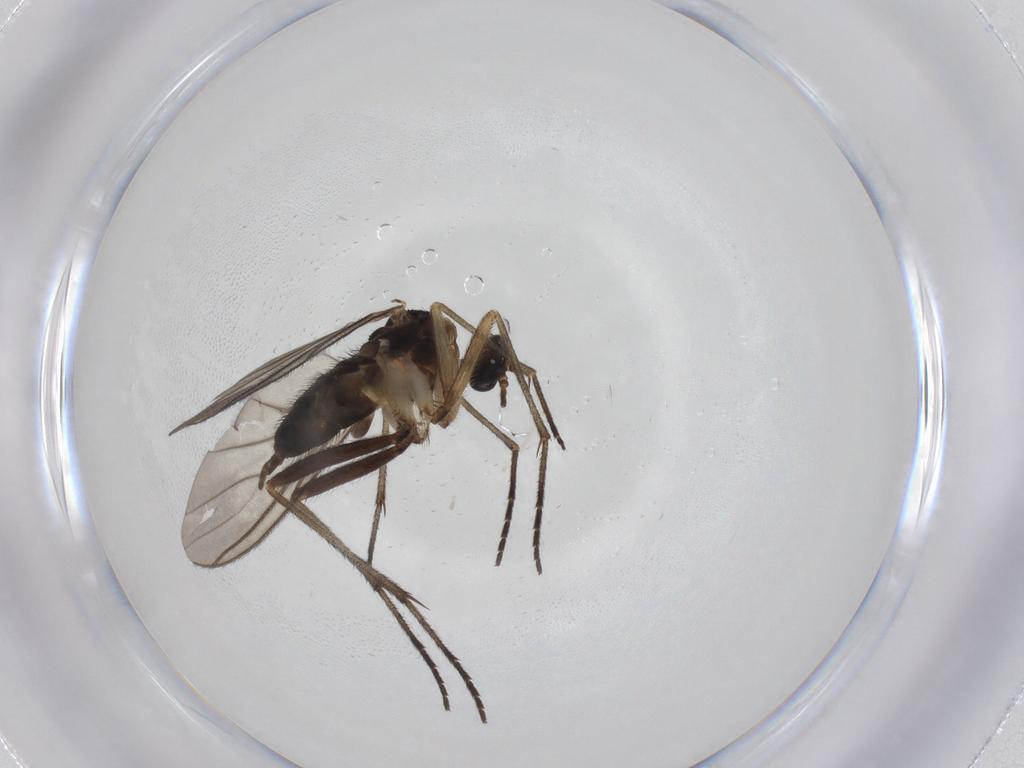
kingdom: Animalia
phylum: Arthropoda
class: Insecta
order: Diptera
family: Sciaridae
